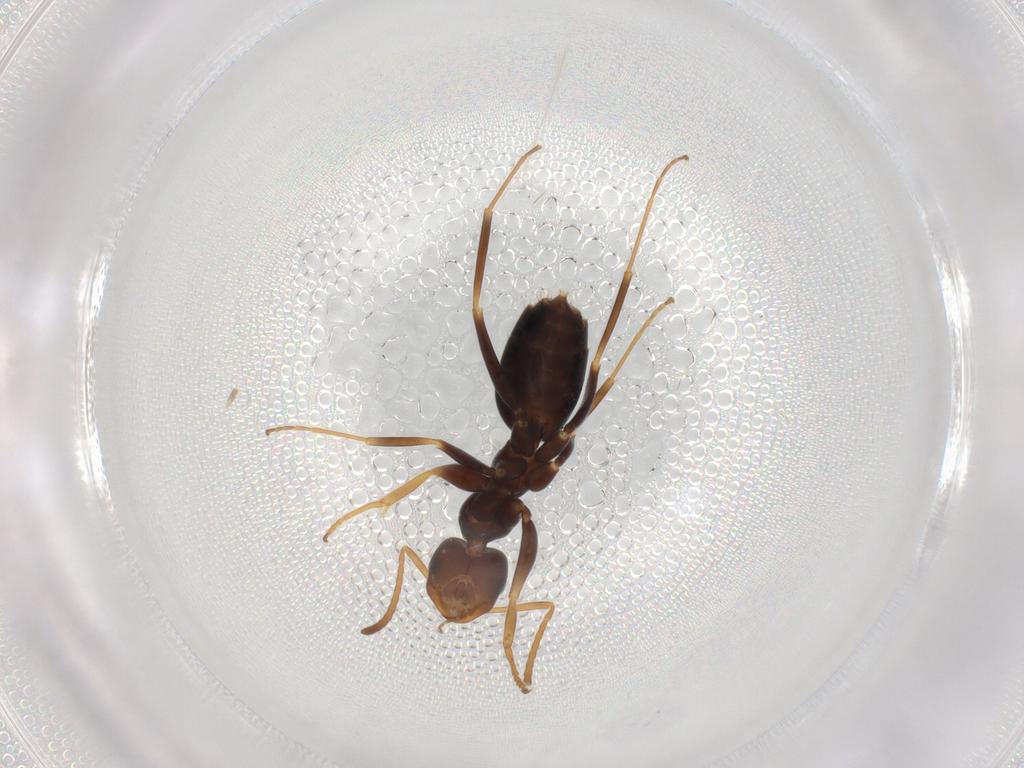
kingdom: Animalia
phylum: Arthropoda
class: Insecta
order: Hymenoptera
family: Formicidae
